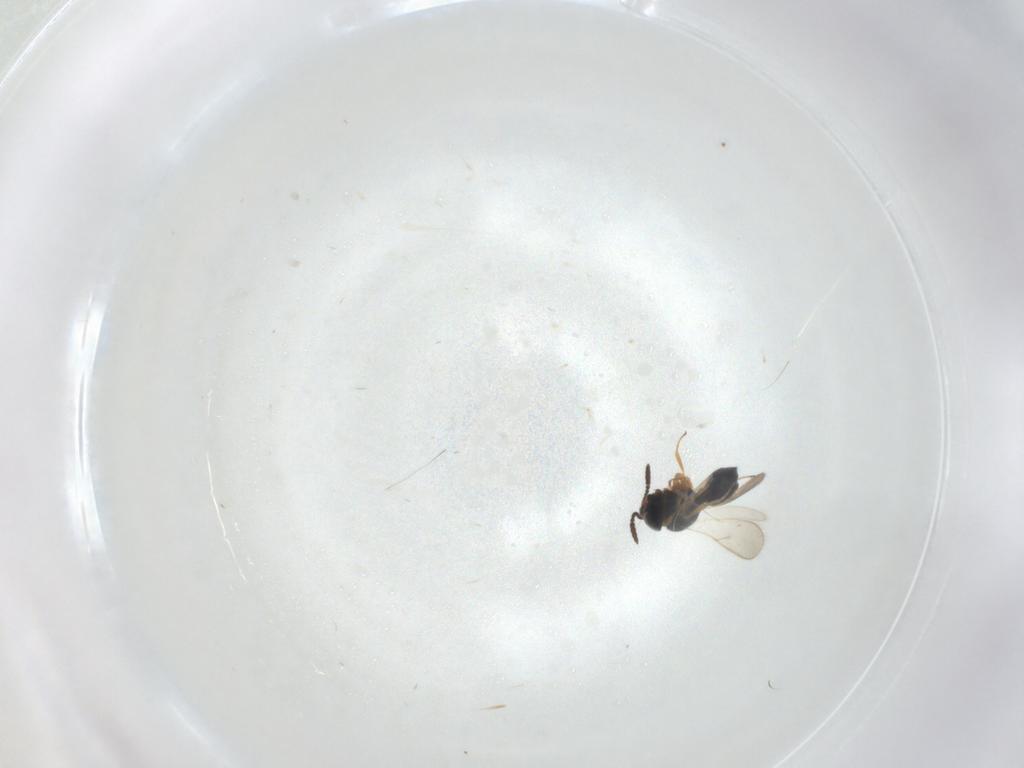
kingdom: Animalia
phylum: Arthropoda
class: Insecta
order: Hymenoptera
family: Scelionidae
